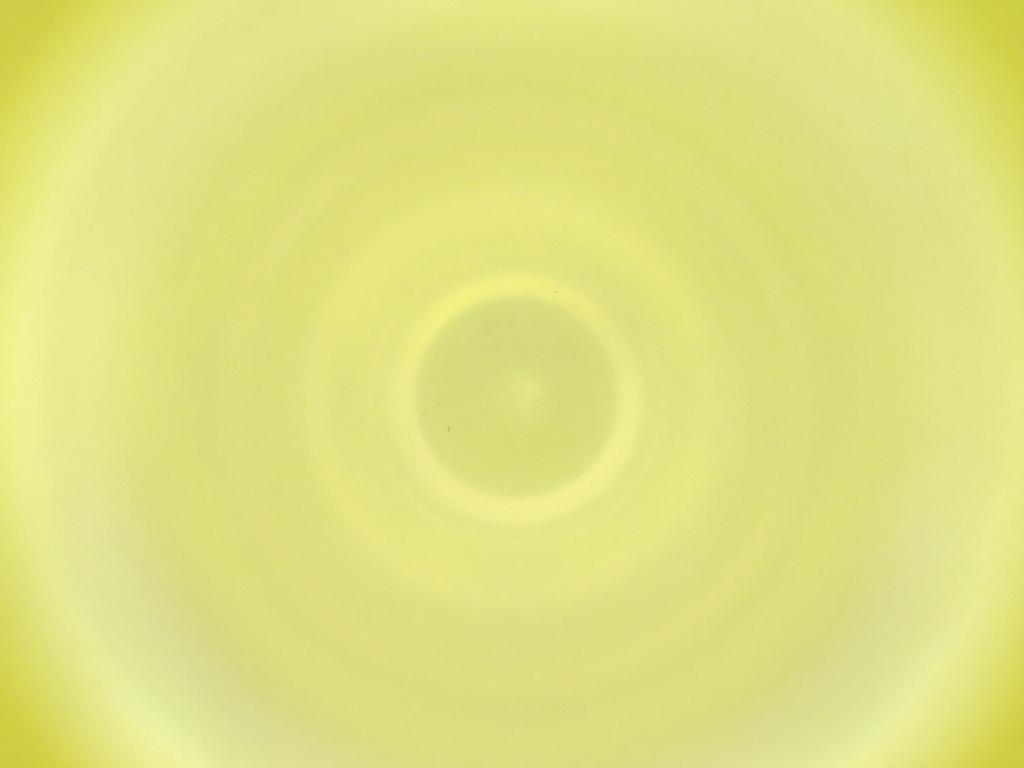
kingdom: Animalia
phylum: Arthropoda
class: Insecta
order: Diptera
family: Cecidomyiidae
